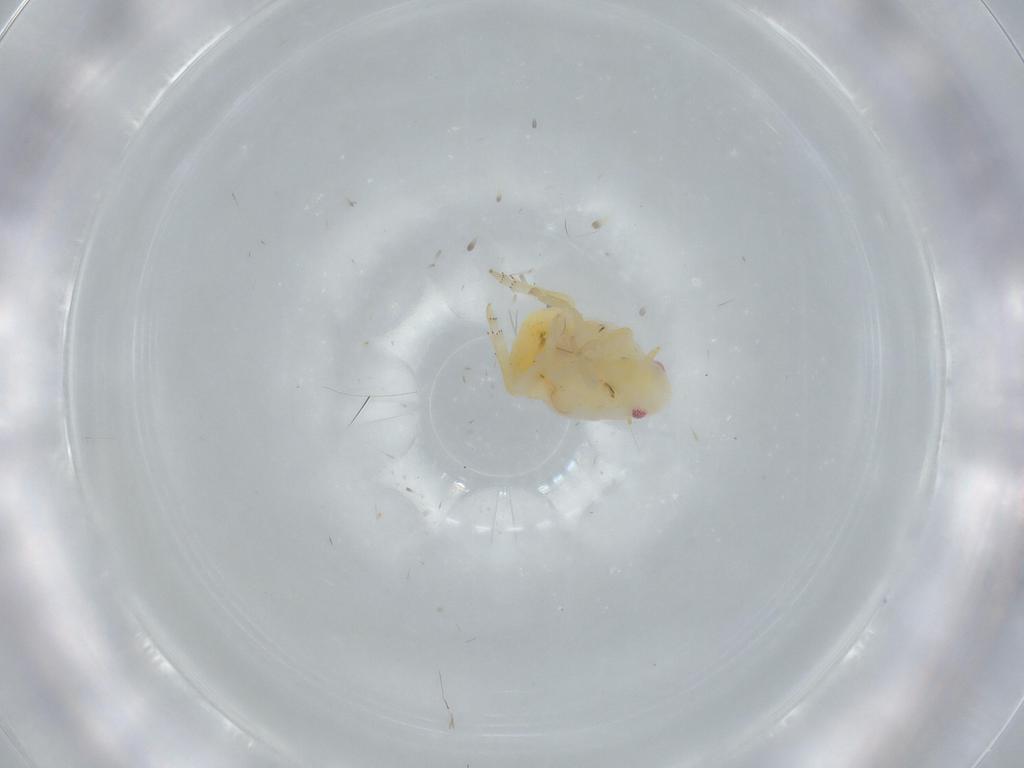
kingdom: Animalia
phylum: Arthropoda
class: Insecta
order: Hemiptera
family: Flatidae
